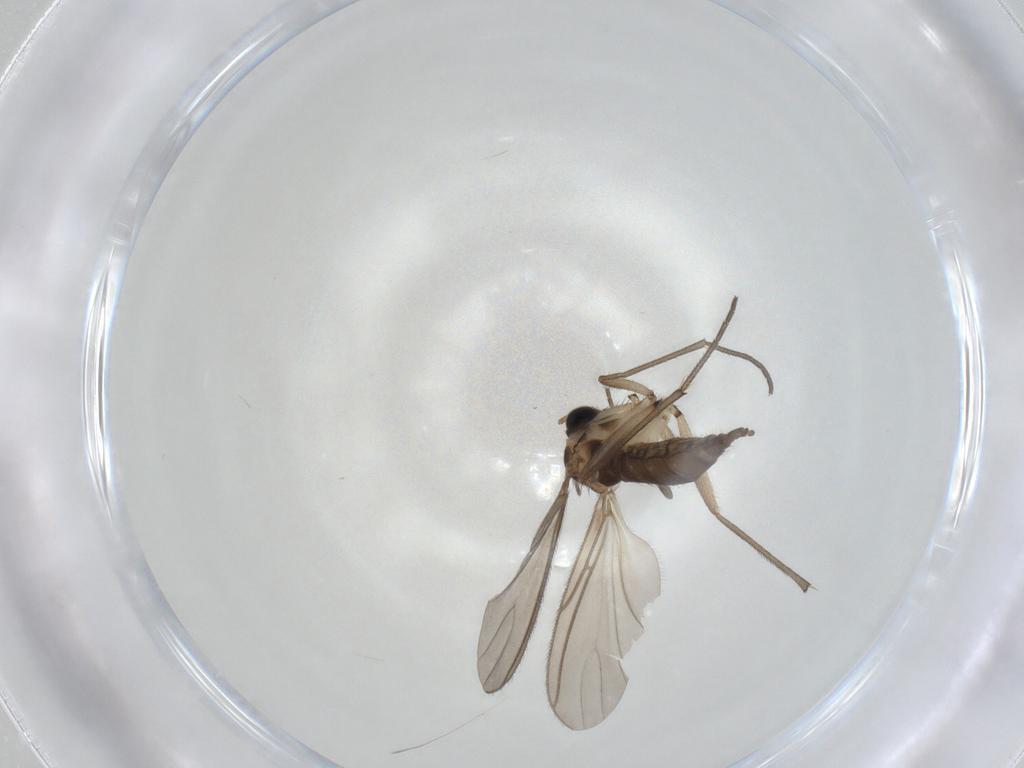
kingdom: Animalia
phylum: Arthropoda
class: Insecta
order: Diptera
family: Sciaridae
